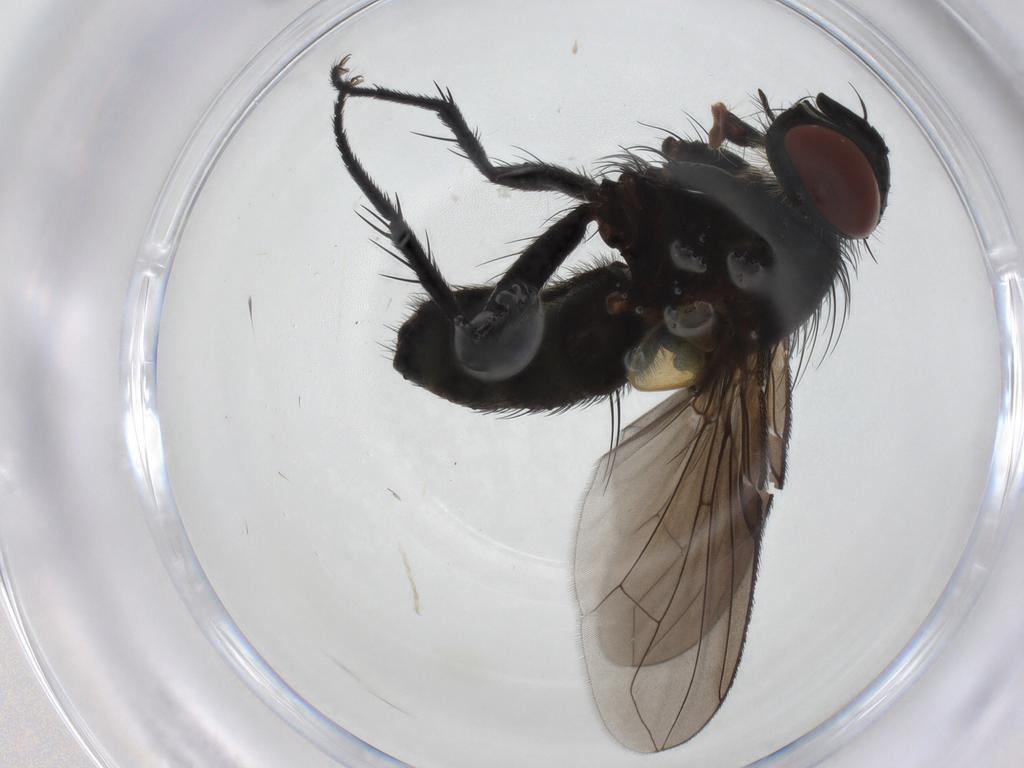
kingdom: Animalia
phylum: Arthropoda
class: Insecta
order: Diptera
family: Tachinidae
